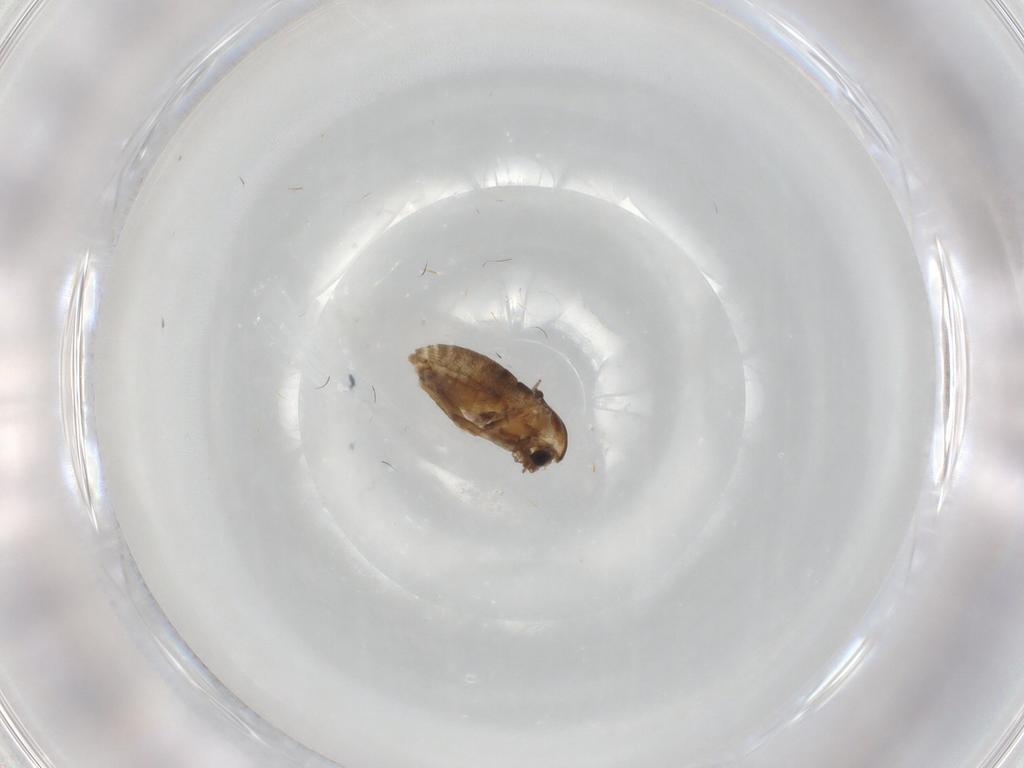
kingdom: Animalia
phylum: Arthropoda
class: Insecta
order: Diptera
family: Chironomidae
